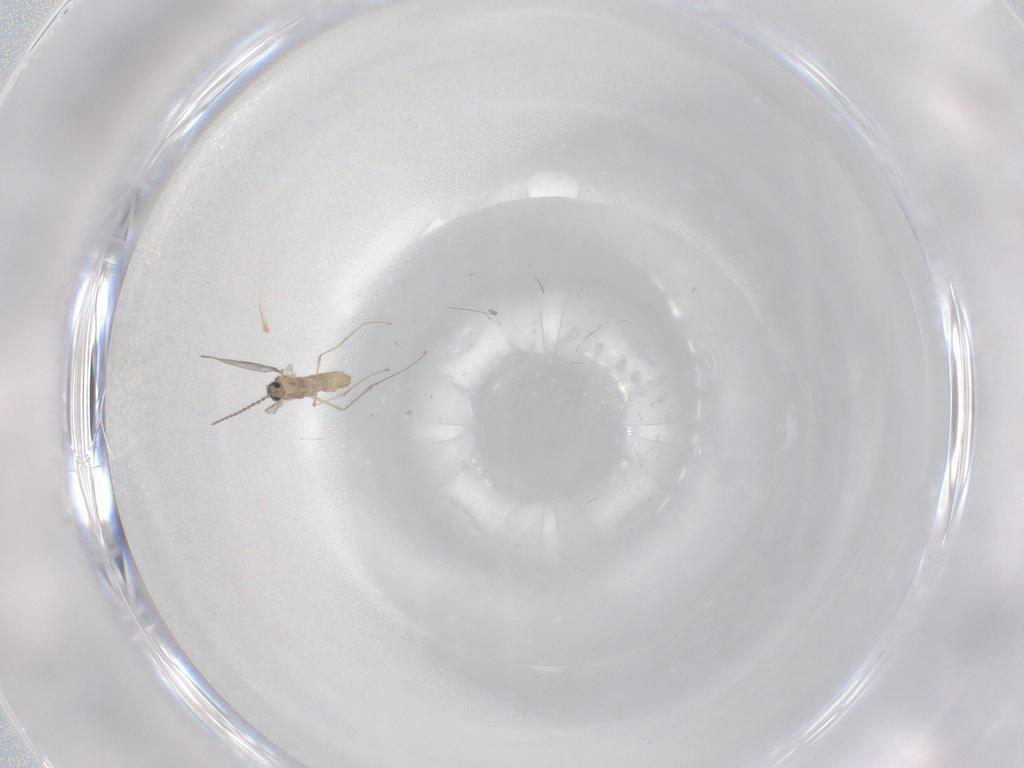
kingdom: Animalia
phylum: Arthropoda
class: Insecta
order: Diptera
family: Cecidomyiidae
